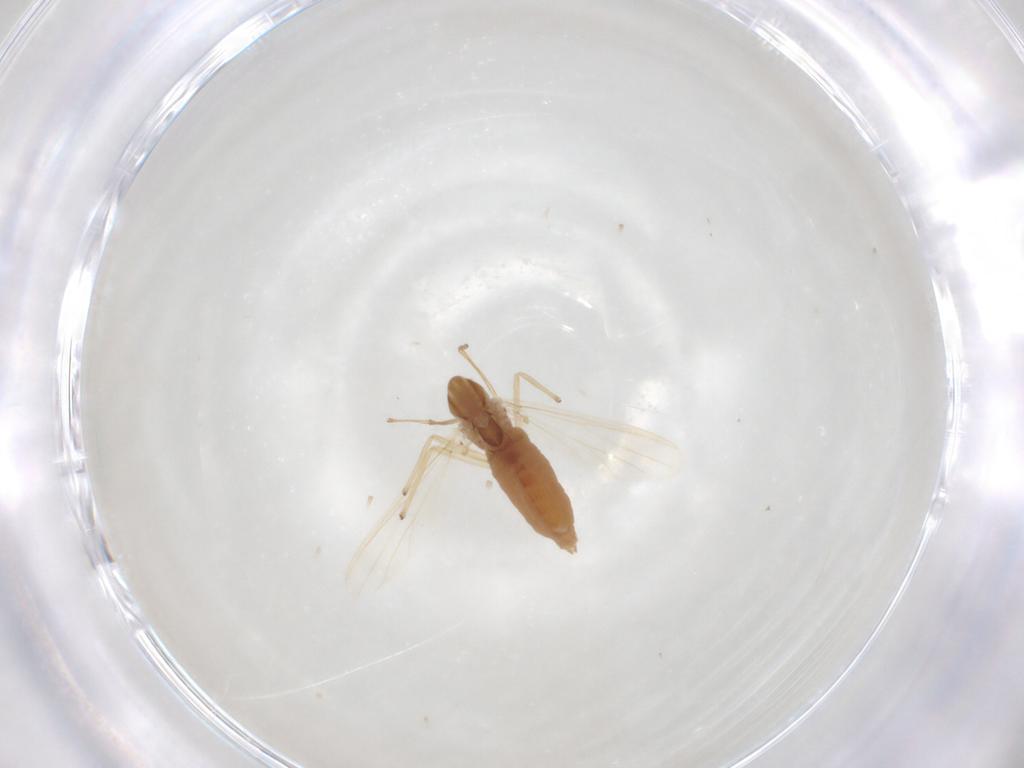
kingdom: Animalia
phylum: Arthropoda
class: Insecta
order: Diptera
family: Chironomidae
